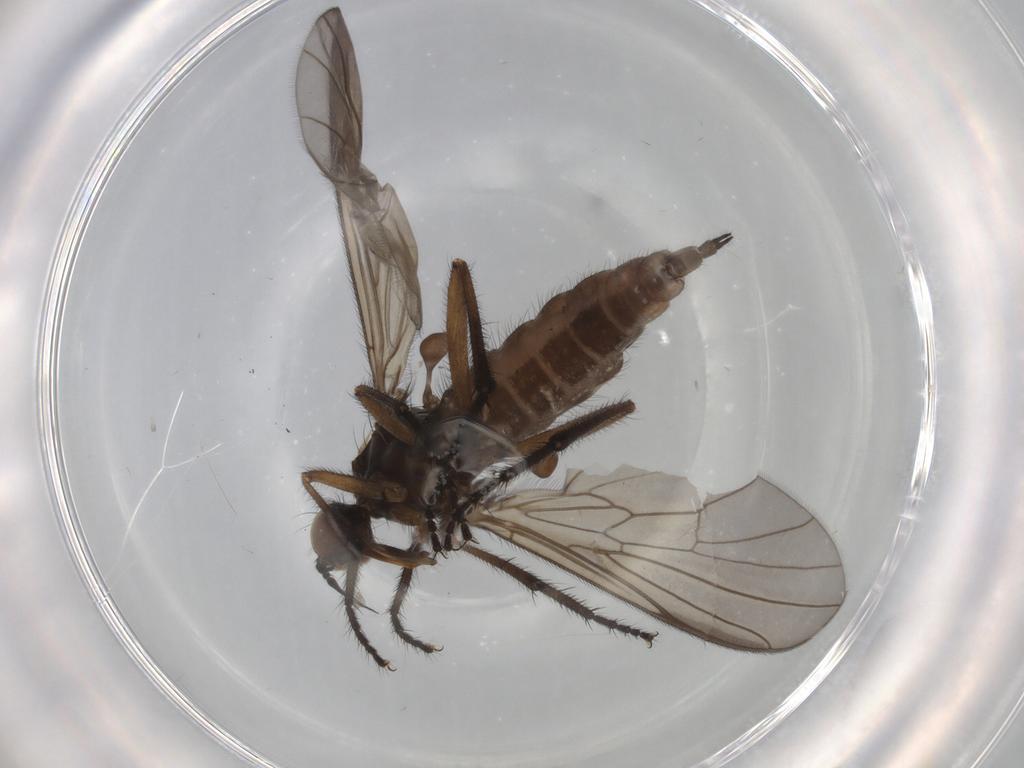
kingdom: Animalia
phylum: Arthropoda
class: Insecta
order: Diptera
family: Empididae
